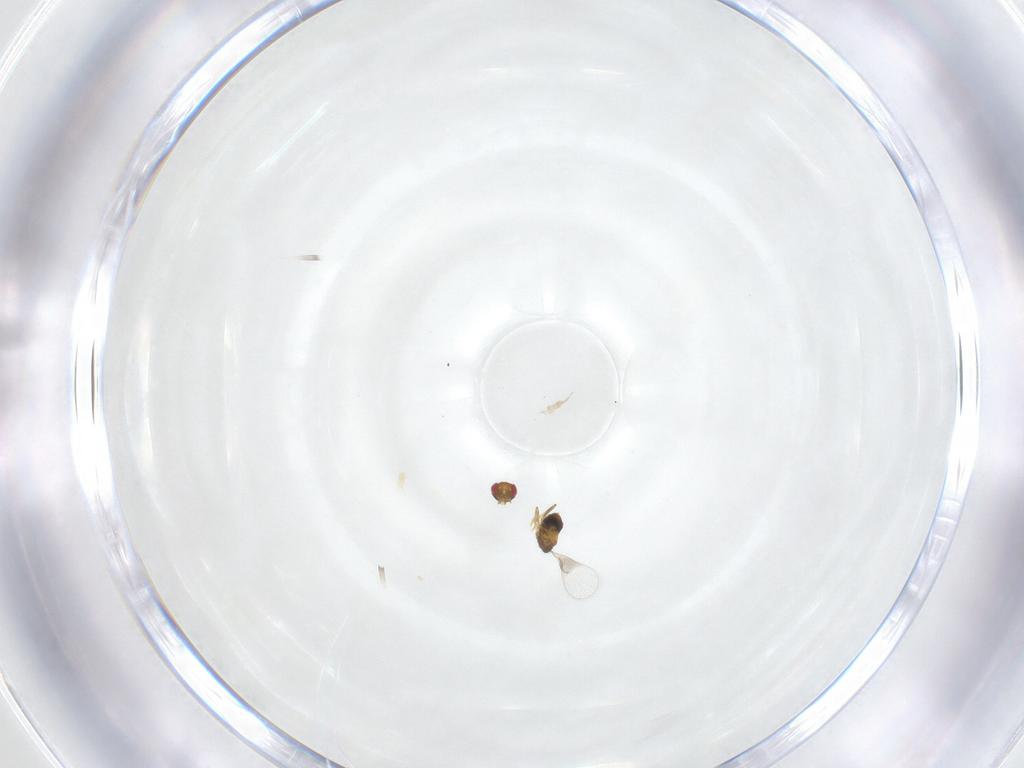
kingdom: Animalia
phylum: Arthropoda
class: Insecta
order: Hymenoptera
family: Trichogrammatidae
